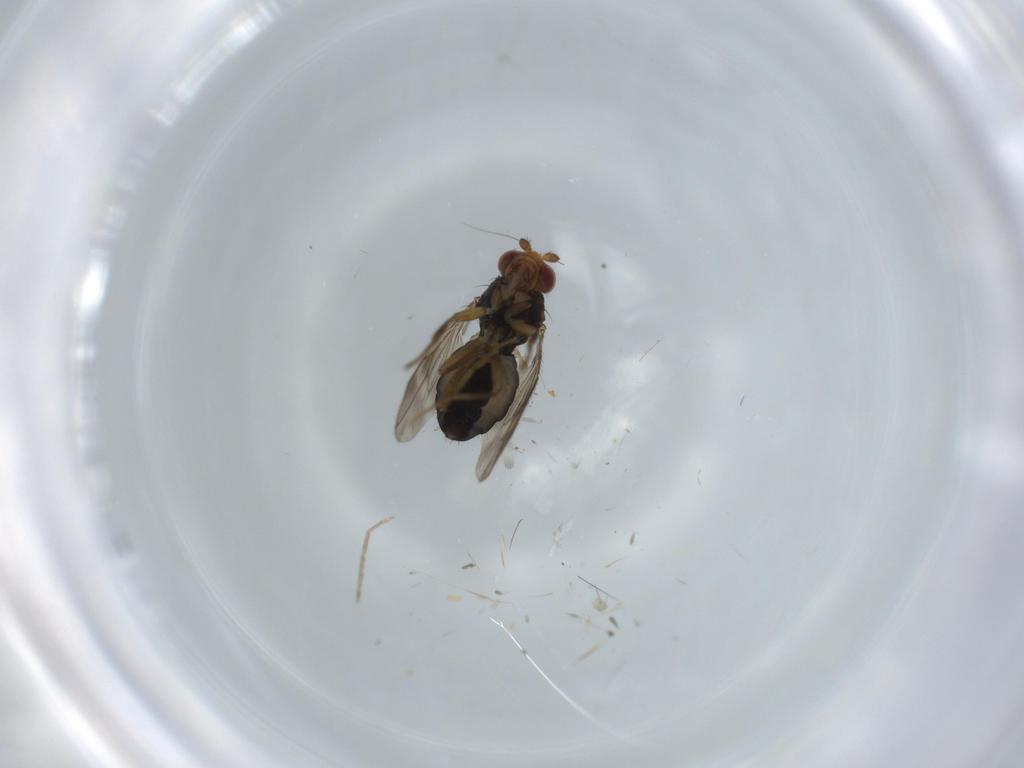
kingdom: Animalia
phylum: Arthropoda
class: Insecta
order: Diptera
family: Sphaeroceridae
